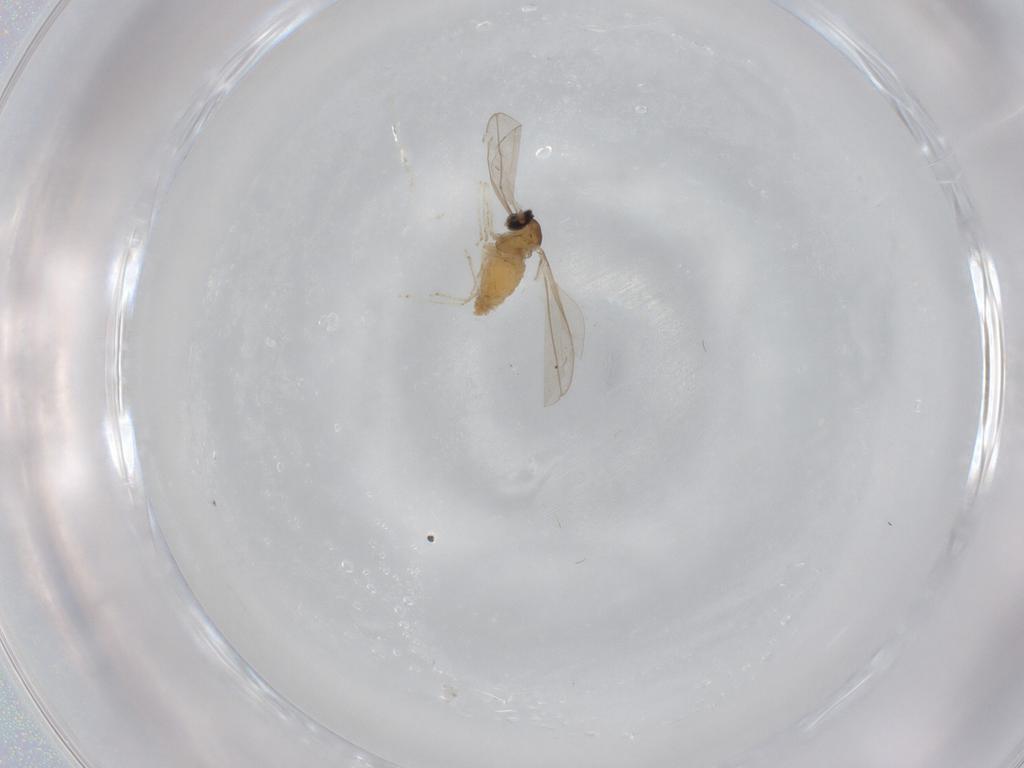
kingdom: Animalia
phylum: Arthropoda
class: Insecta
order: Diptera
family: Cecidomyiidae
